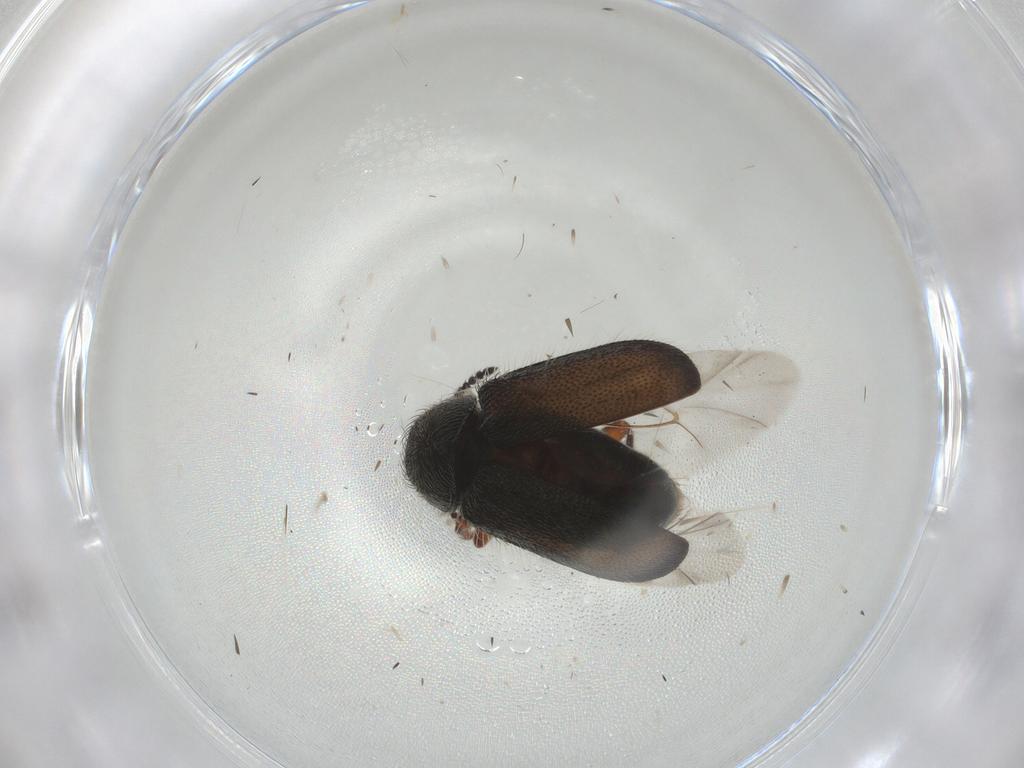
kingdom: Animalia
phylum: Arthropoda
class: Insecta
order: Coleoptera
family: Melyridae
